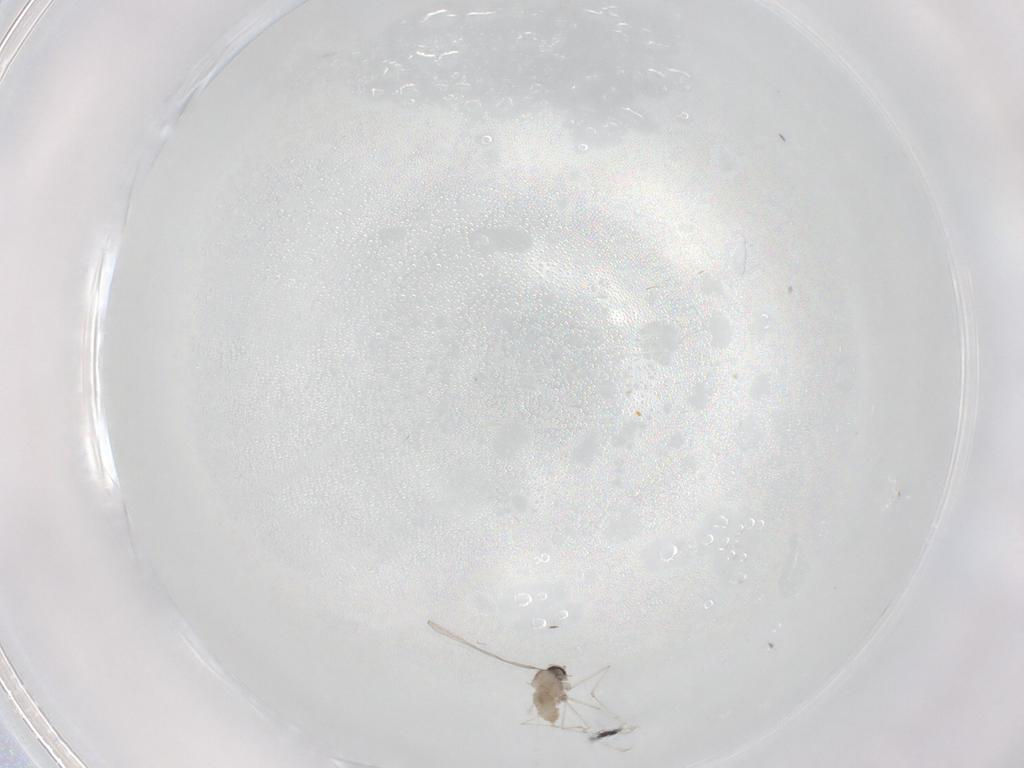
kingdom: Animalia
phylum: Arthropoda
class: Insecta
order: Diptera
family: Cecidomyiidae
